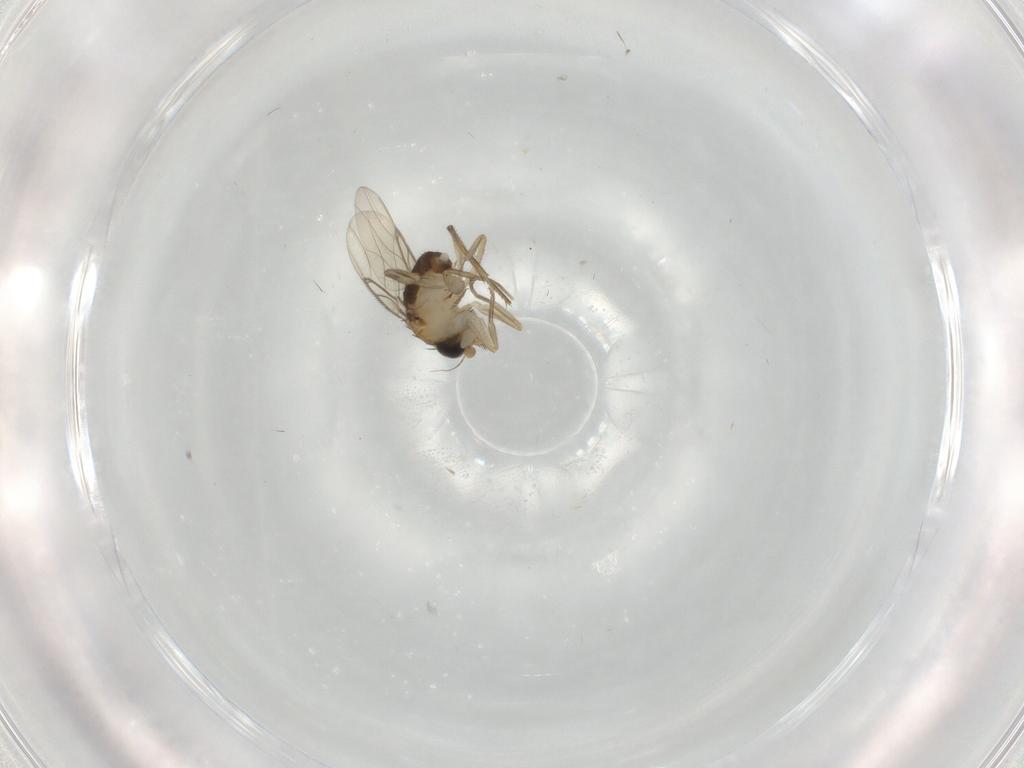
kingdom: Animalia
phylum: Arthropoda
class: Insecta
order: Diptera
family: Phoridae
